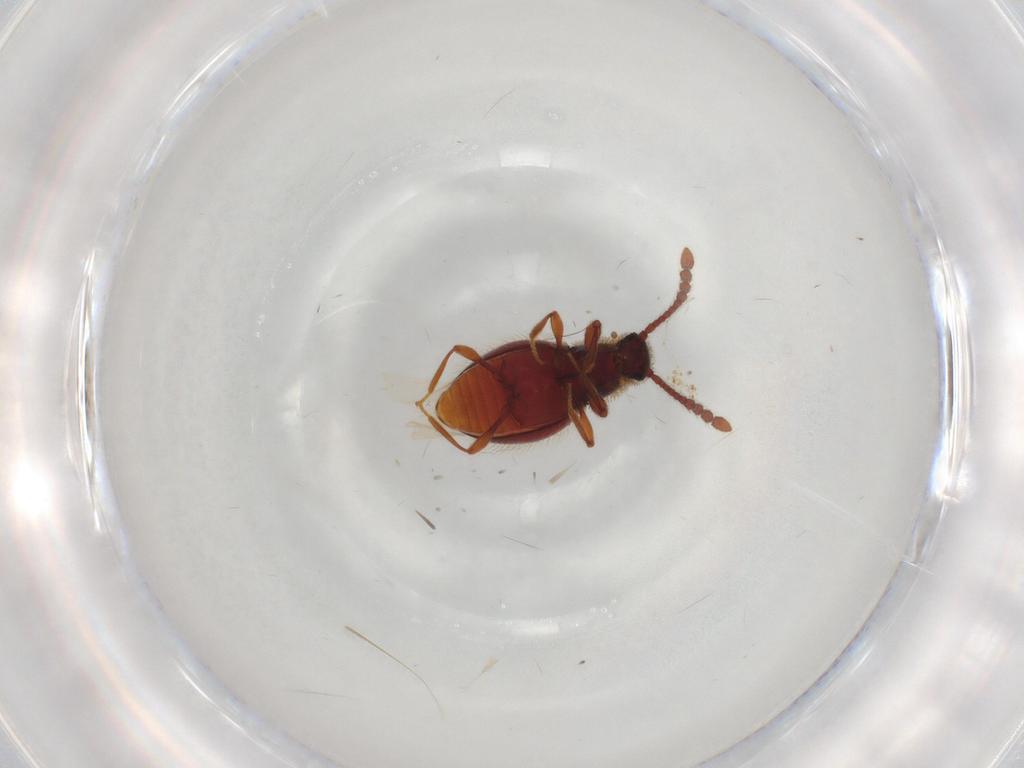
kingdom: Animalia
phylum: Arthropoda
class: Insecta
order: Coleoptera
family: Staphylinidae
